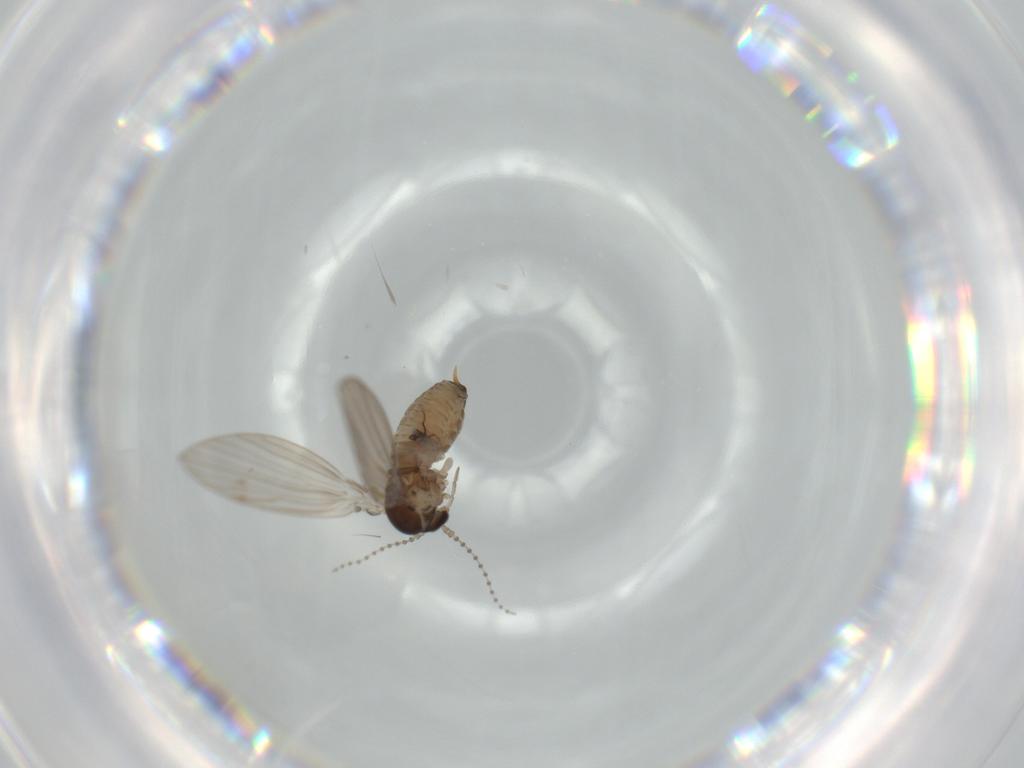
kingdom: Animalia
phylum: Arthropoda
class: Insecta
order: Diptera
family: Psychodidae
